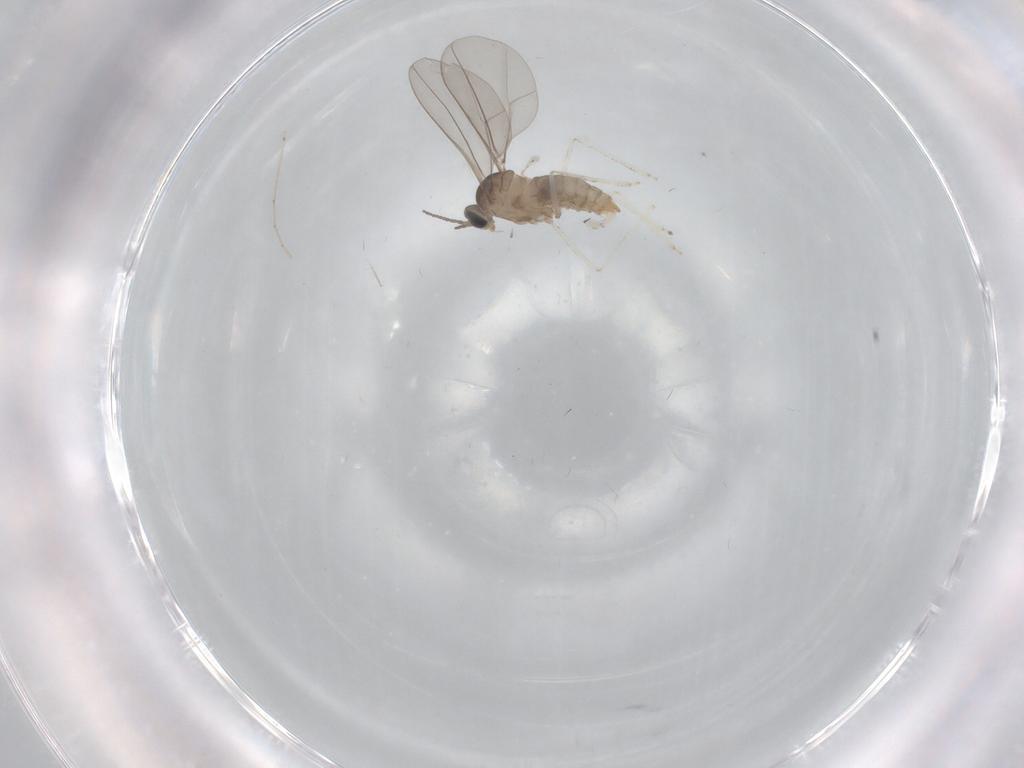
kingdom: Animalia
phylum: Arthropoda
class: Insecta
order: Diptera
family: Cecidomyiidae
